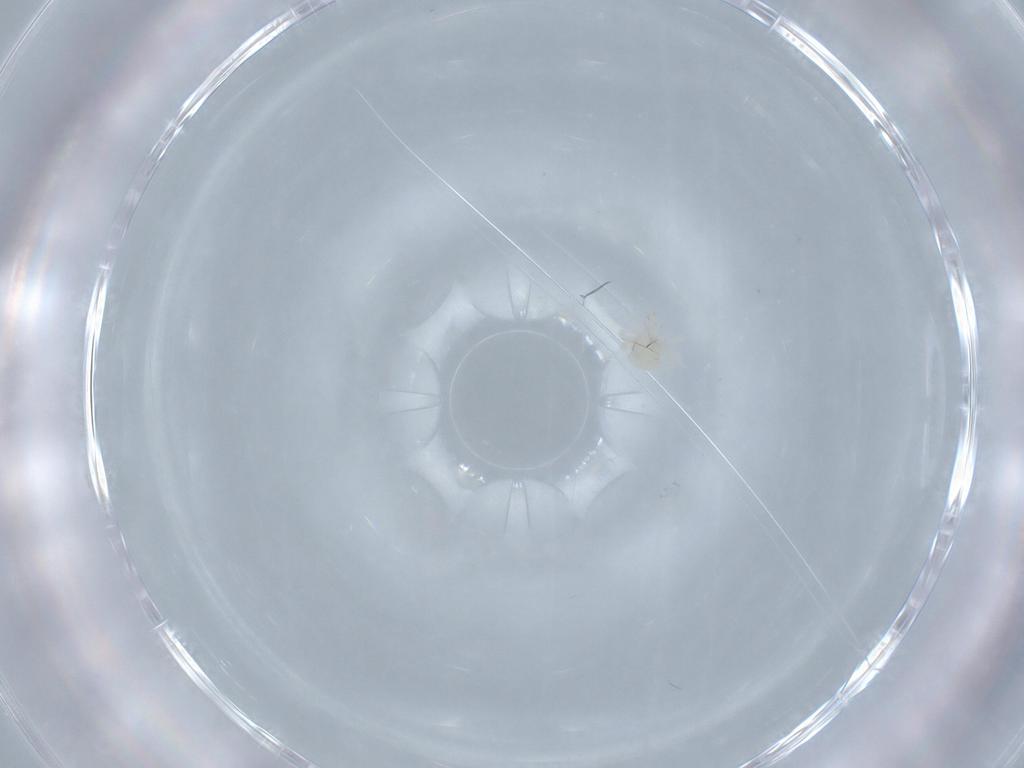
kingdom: Animalia
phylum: Arthropoda
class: Arachnida
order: Trombidiformes
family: Anystidae
